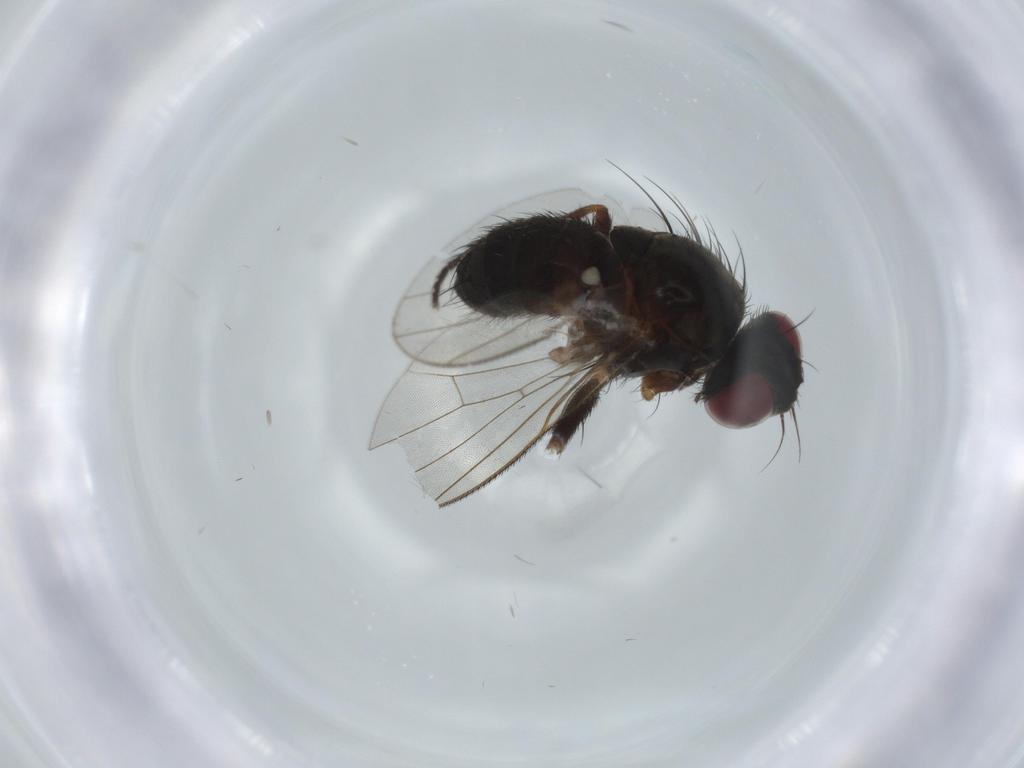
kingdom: Animalia
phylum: Arthropoda
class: Insecta
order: Diptera
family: Muscidae
